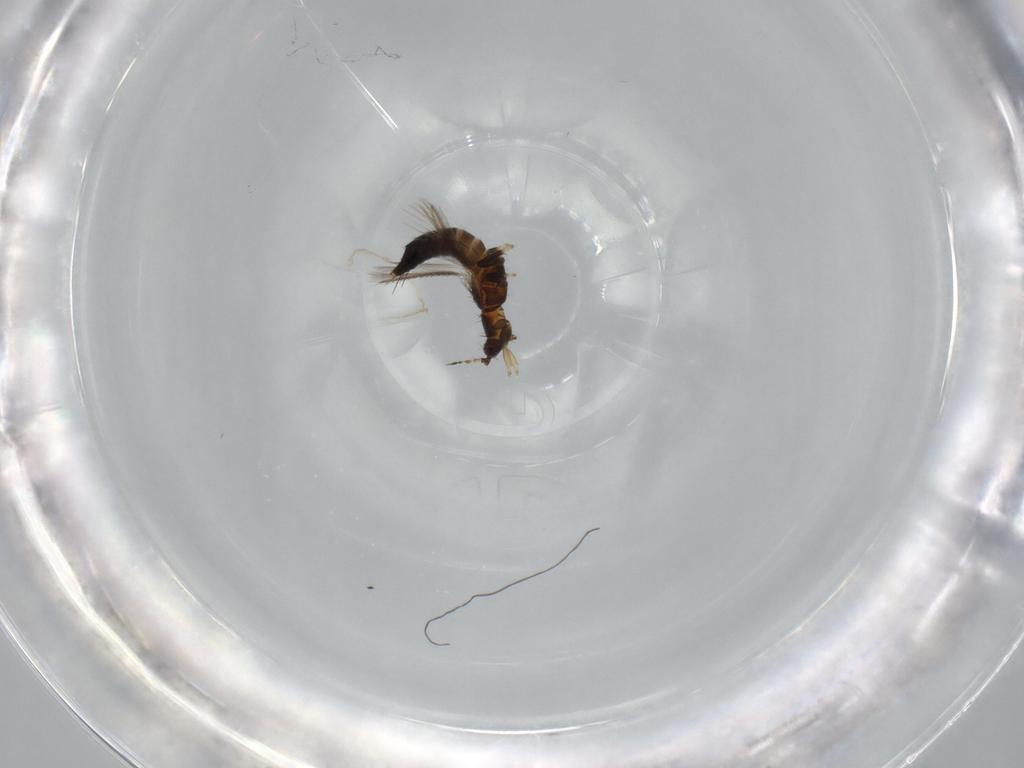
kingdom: Animalia
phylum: Arthropoda
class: Insecta
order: Thysanoptera
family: Thripidae
